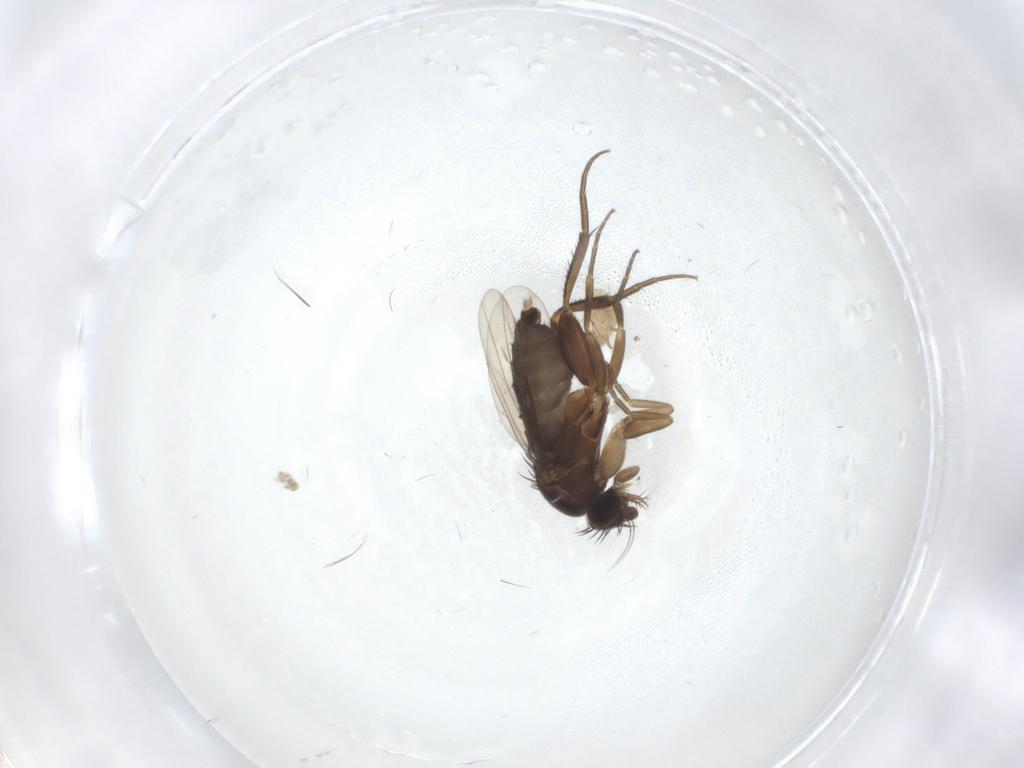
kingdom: Animalia
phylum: Arthropoda
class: Insecta
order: Diptera
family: Phoridae
